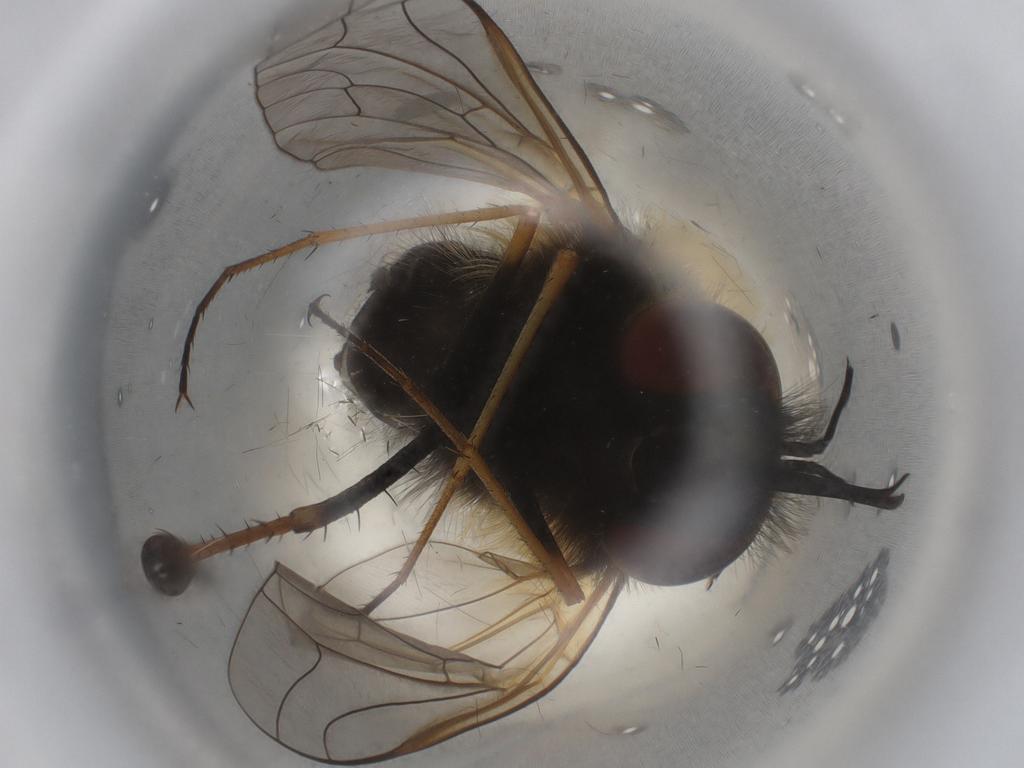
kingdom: Animalia
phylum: Arthropoda
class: Insecta
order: Diptera
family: Bombyliidae
